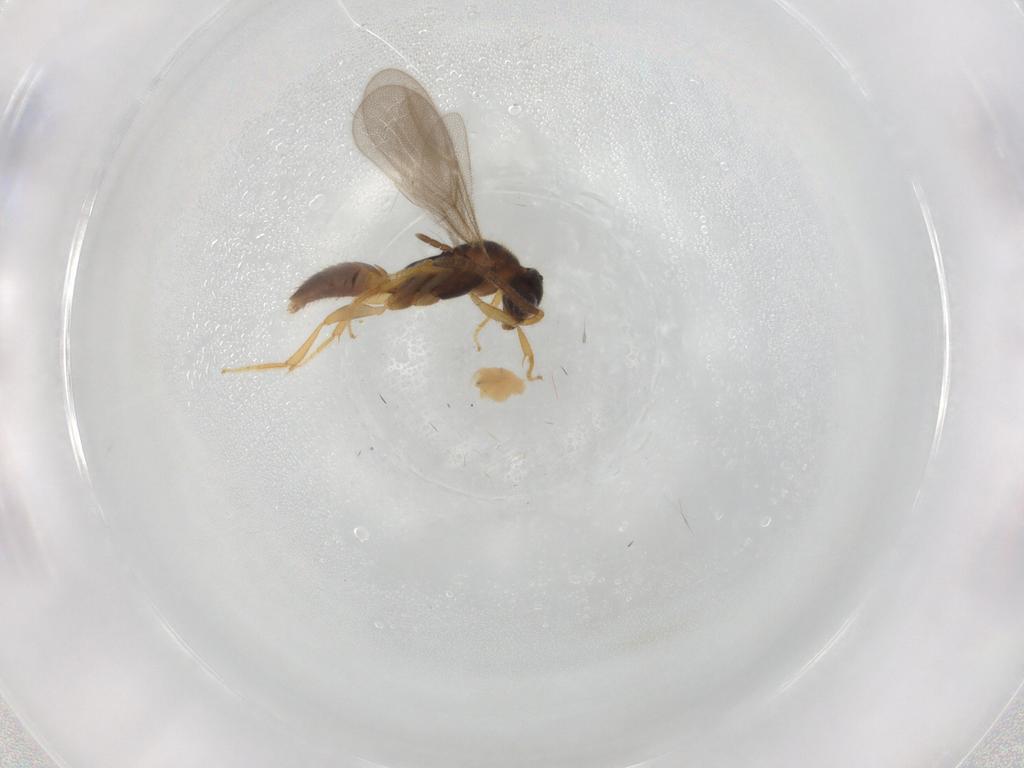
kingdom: Animalia
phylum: Arthropoda
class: Insecta
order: Hymenoptera
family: Bethylidae
